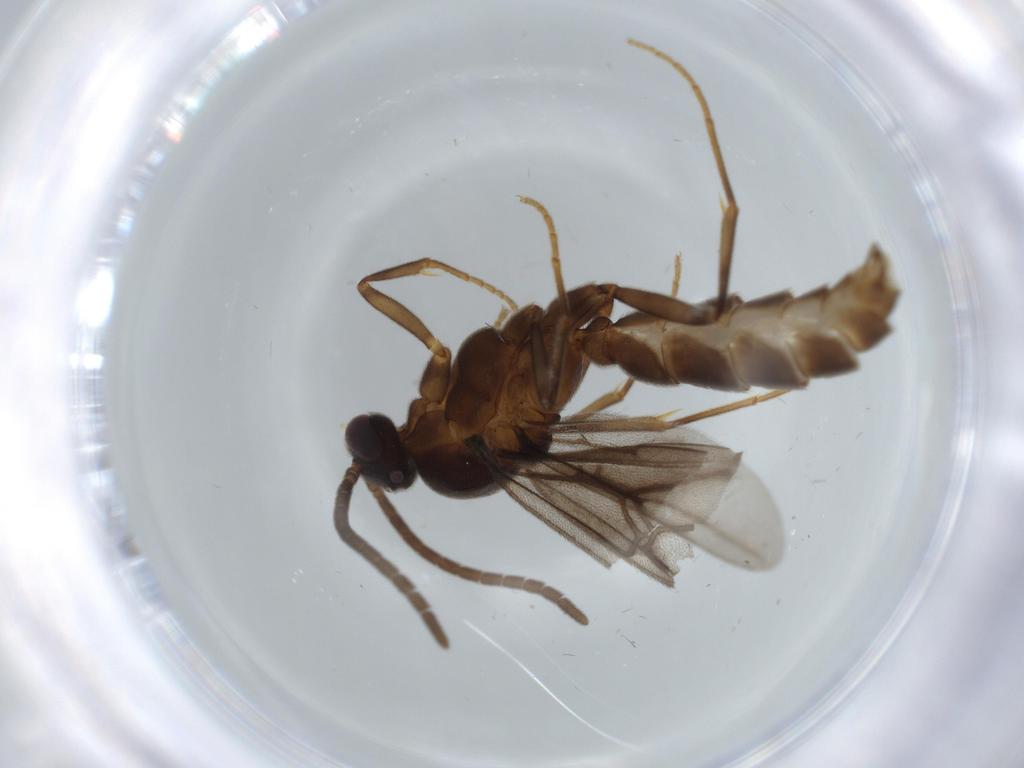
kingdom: Animalia
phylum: Arthropoda
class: Insecta
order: Hymenoptera
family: Formicidae
